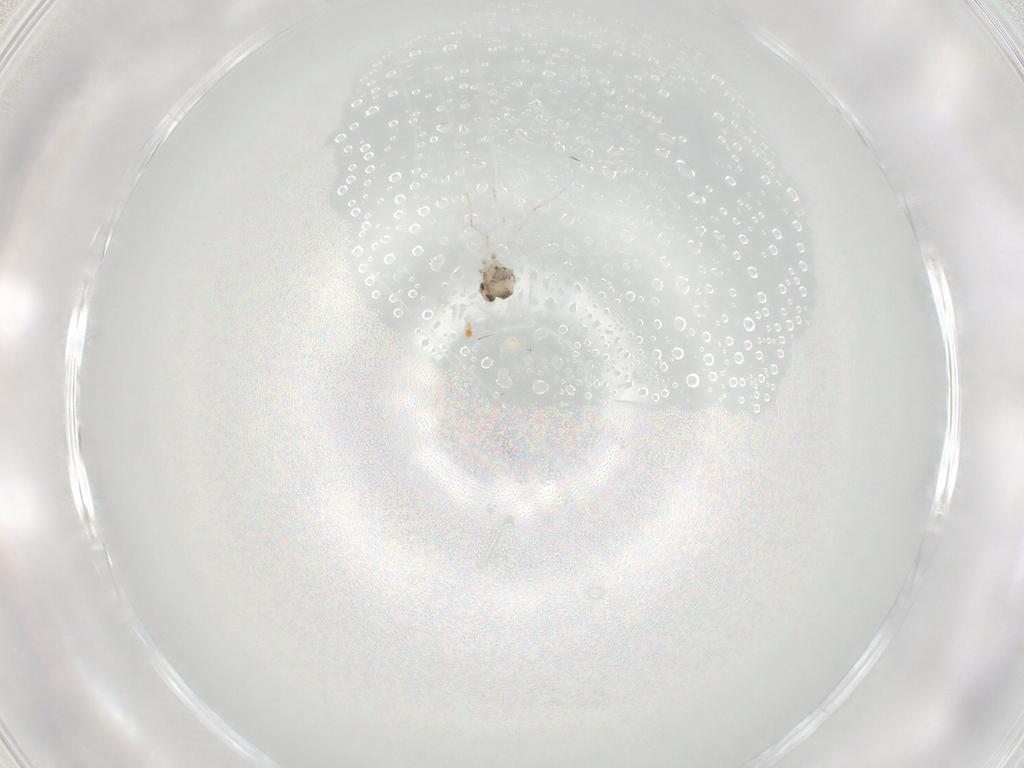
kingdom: Animalia
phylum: Arthropoda
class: Insecta
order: Diptera
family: Cecidomyiidae
